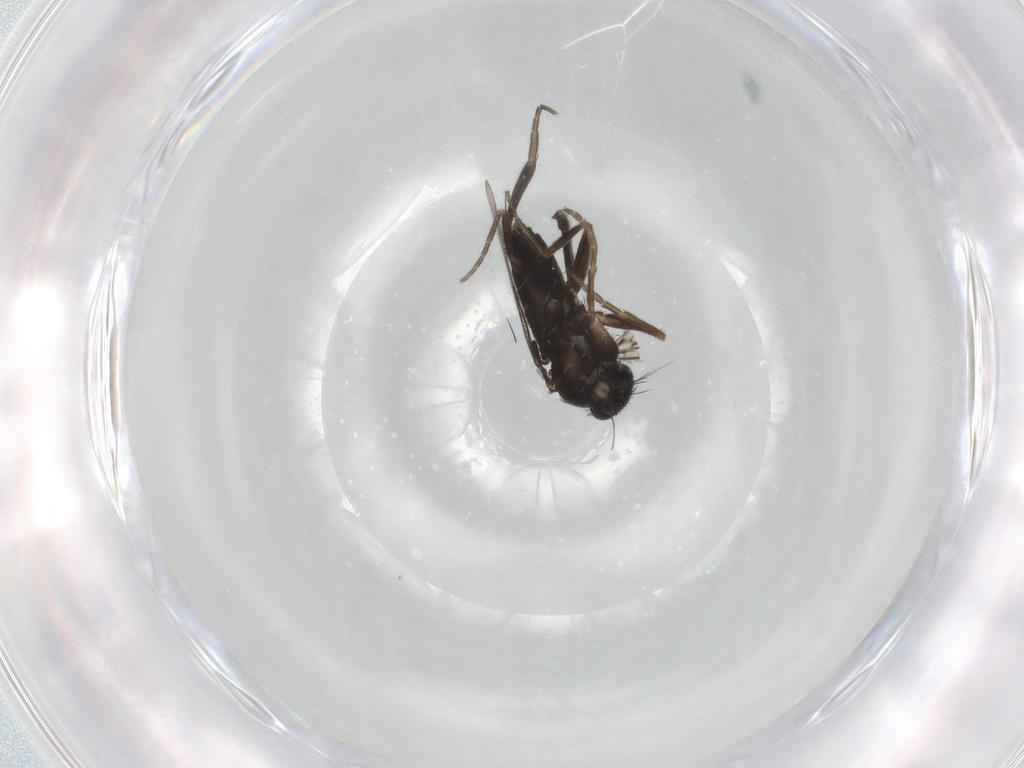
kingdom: Animalia
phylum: Arthropoda
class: Insecta
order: Diptera
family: Phoridae
